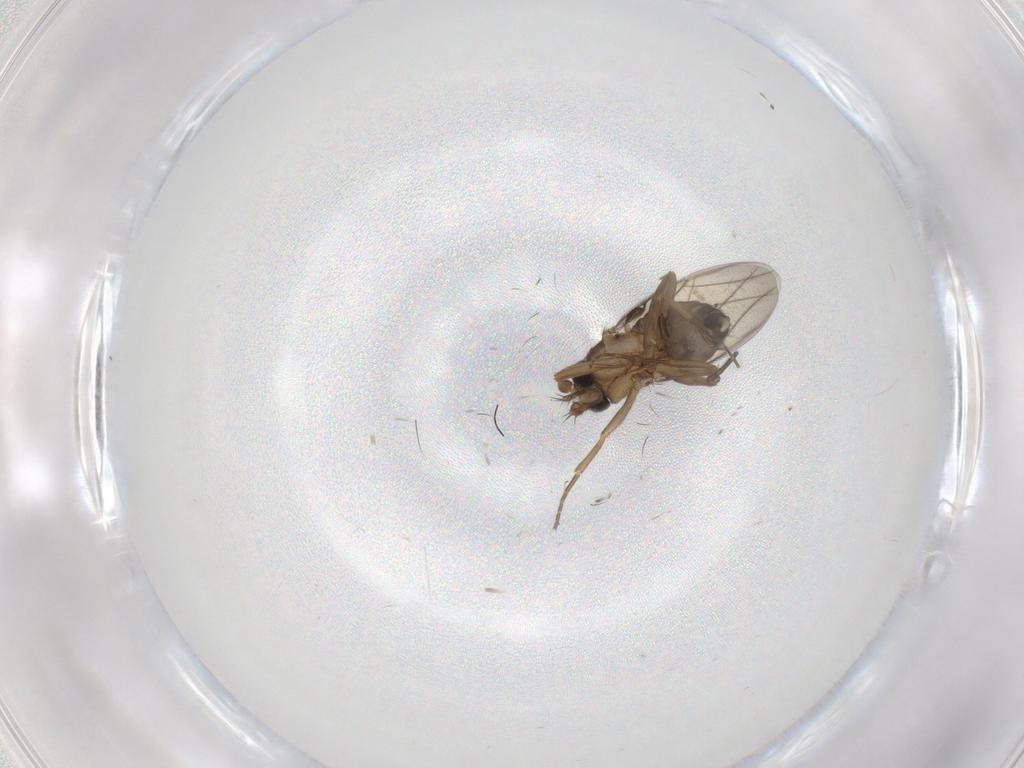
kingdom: Animalia
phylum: Arthropoda
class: Insecta
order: Diptera
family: Phoridae
